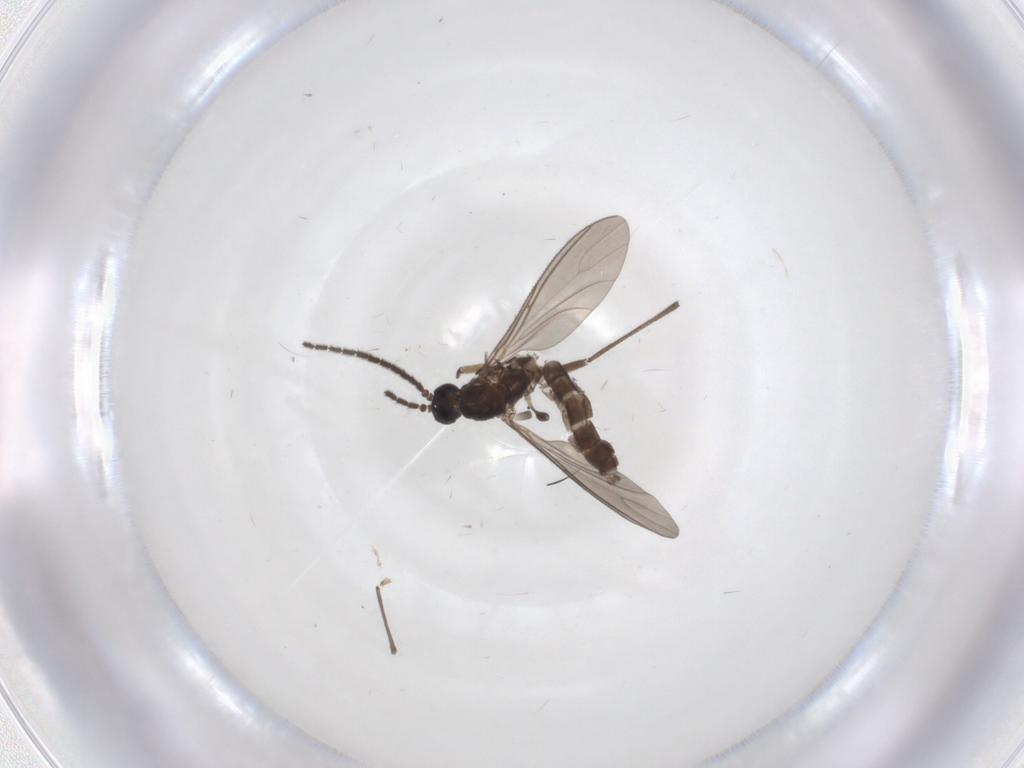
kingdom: Animalia
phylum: Arthropoda
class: Insecta
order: Diptera
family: Sciaridae
